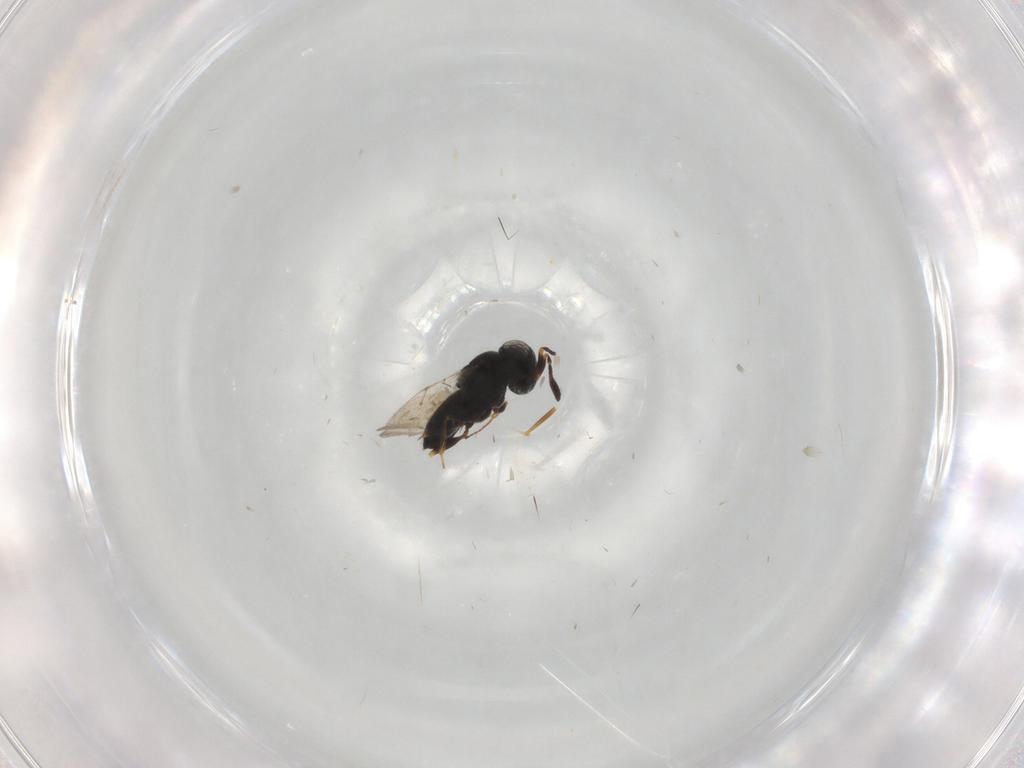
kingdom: Animalia
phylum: Arthropoda
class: Insecta
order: Hymenoptera
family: Scelionidae
